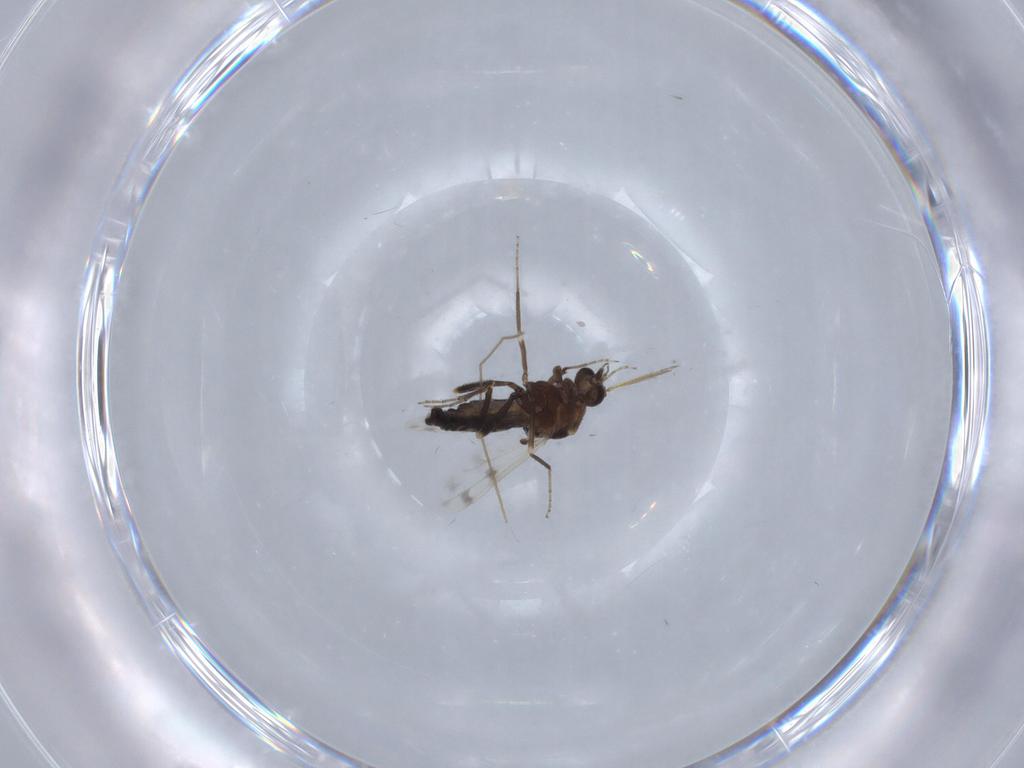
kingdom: Animalia
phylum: Arthropoda
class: Insecta
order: Diptera
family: Ceratopogonidae
